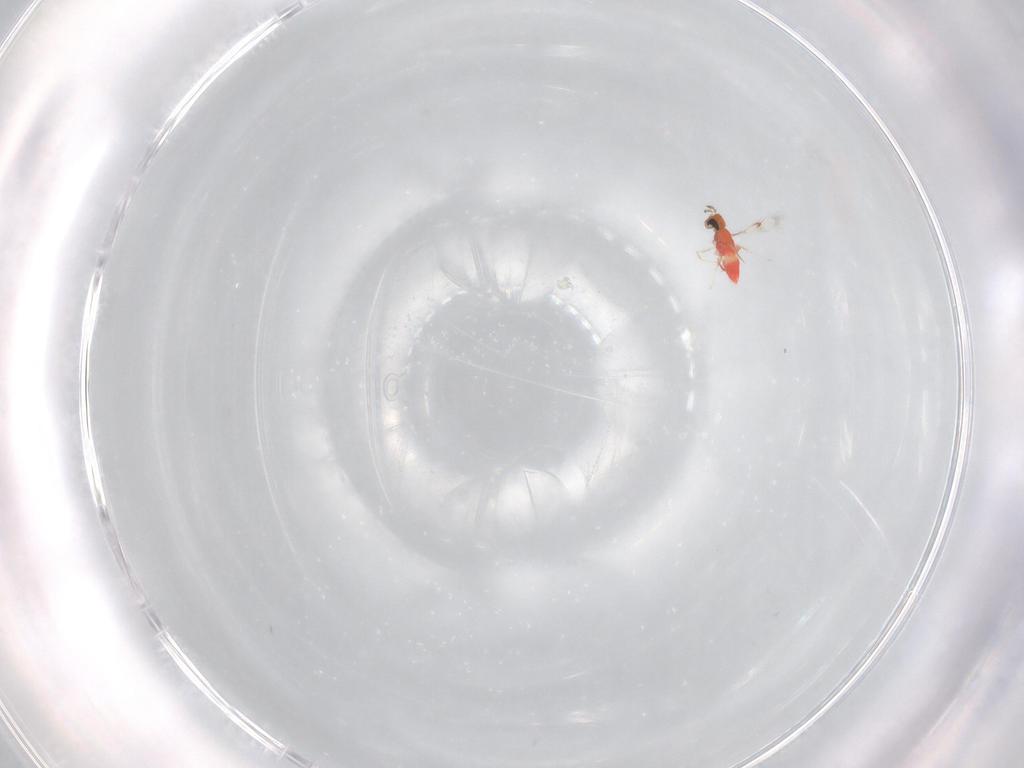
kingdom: Animalia
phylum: Arthropoda
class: Insecta
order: Hymenoptera
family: Trichogrammatidae
